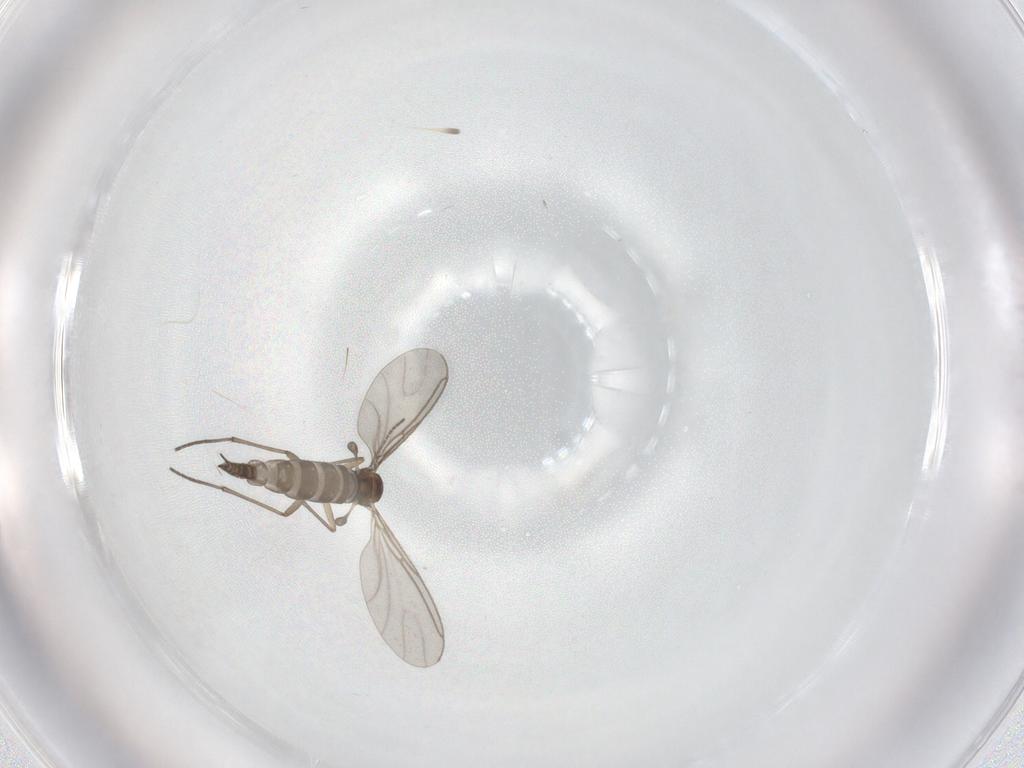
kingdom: Animalia
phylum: Arthropoda
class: Insecta
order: Diptera
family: Sciaridae
